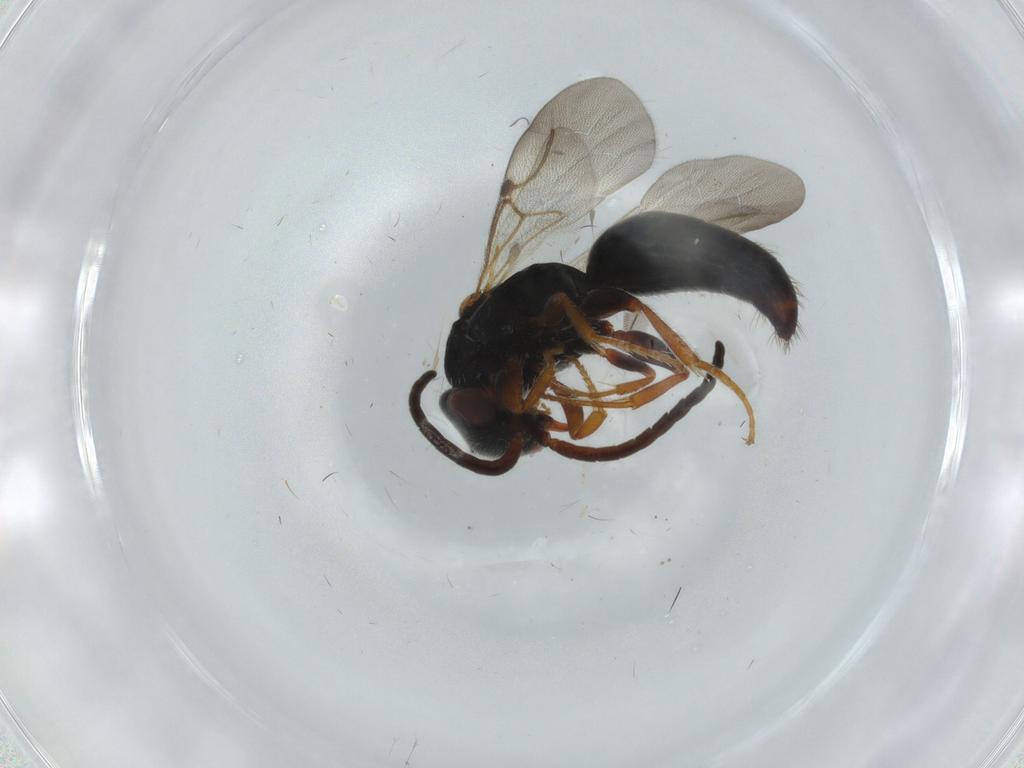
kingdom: Animalia
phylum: Arthropoda
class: Insecta
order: Hymenoptera
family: Bethylidae
